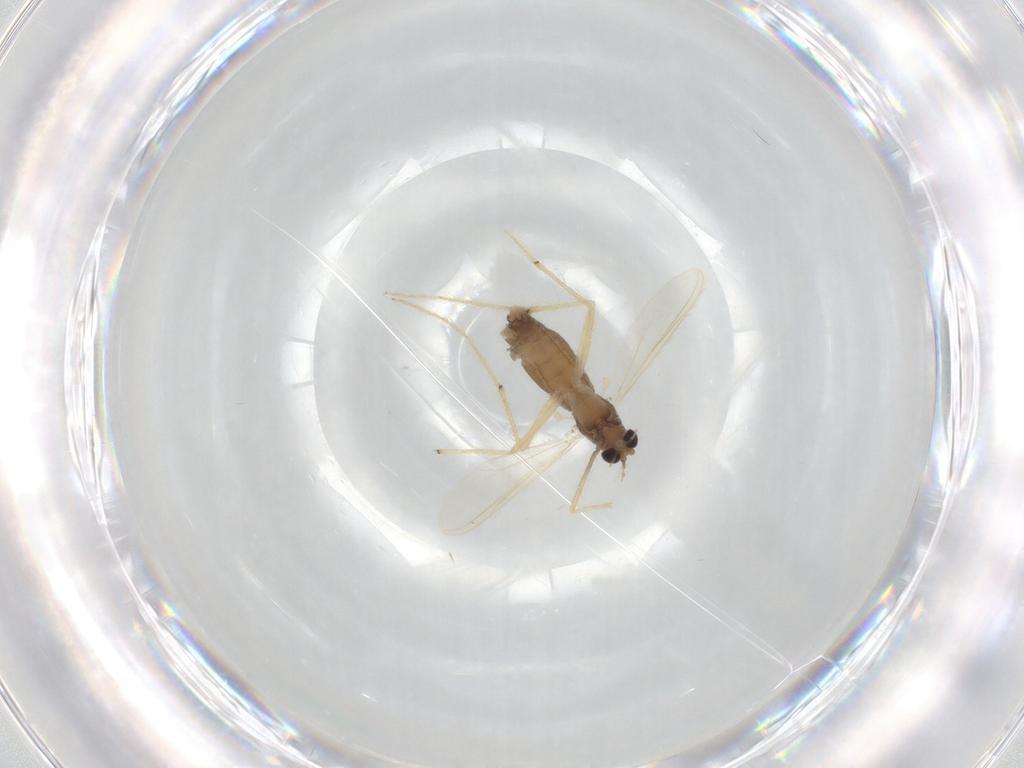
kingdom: Animalia
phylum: Arthropoda
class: Insecta
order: Diptera
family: Chironomidae
